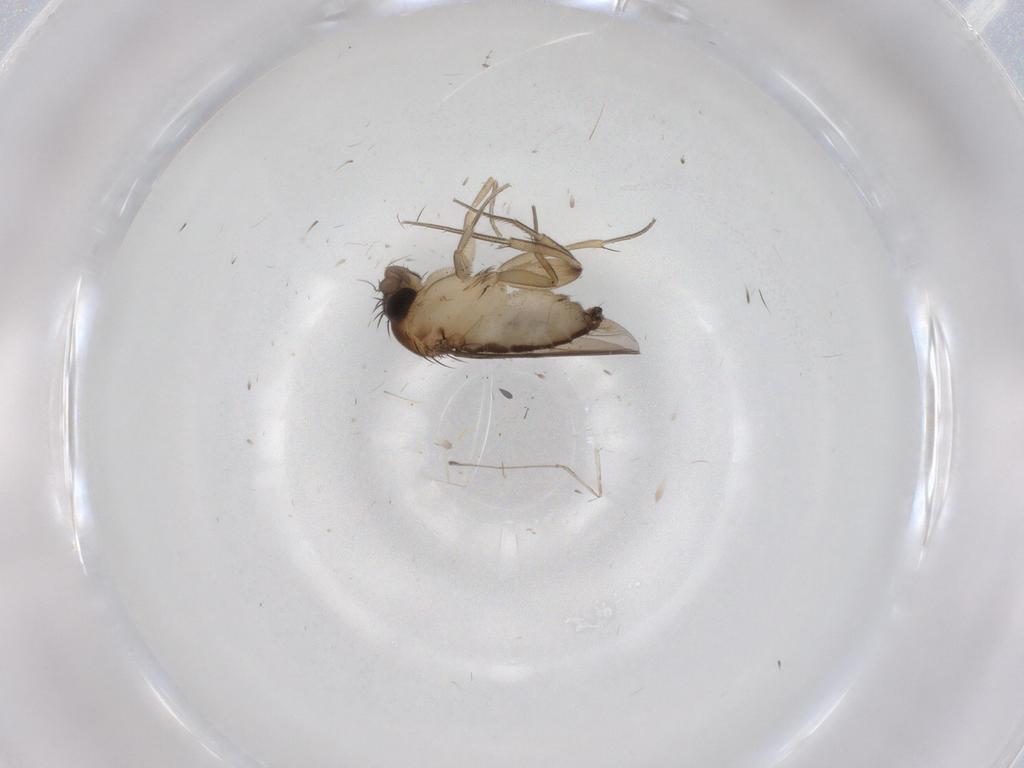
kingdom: Animalia
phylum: Arthropoda
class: Insecta
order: Diptera
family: Phoridae
